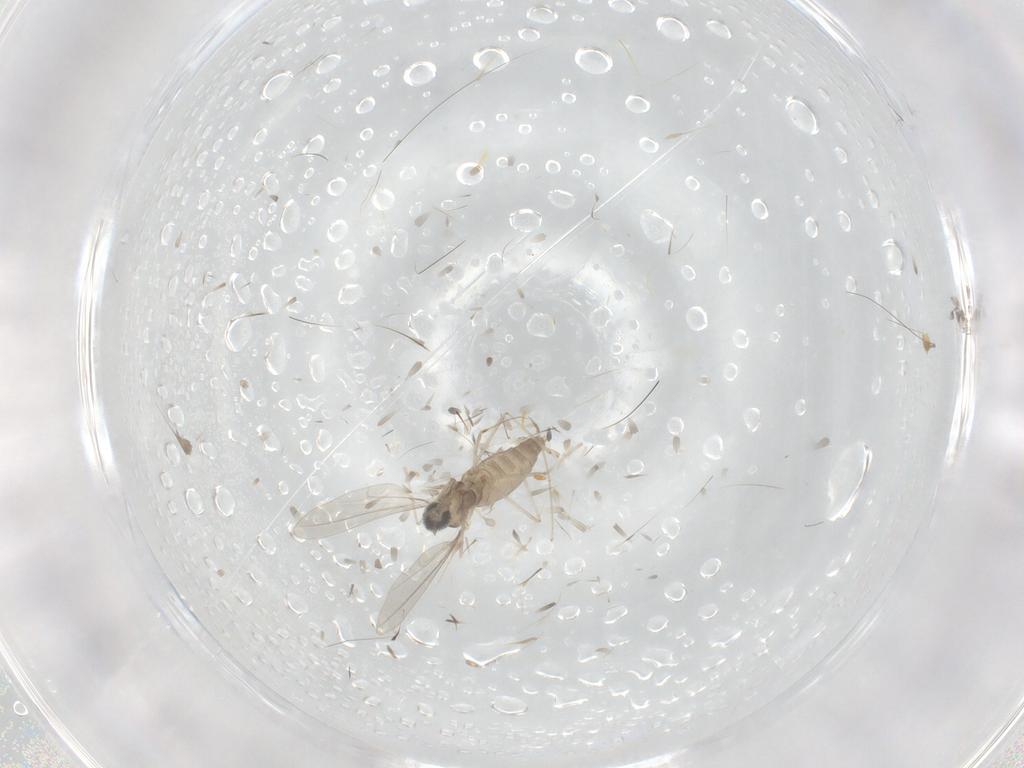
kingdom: Animalia
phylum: Arthropoda
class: Insecta
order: Diptera
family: Cecidomyiidae
